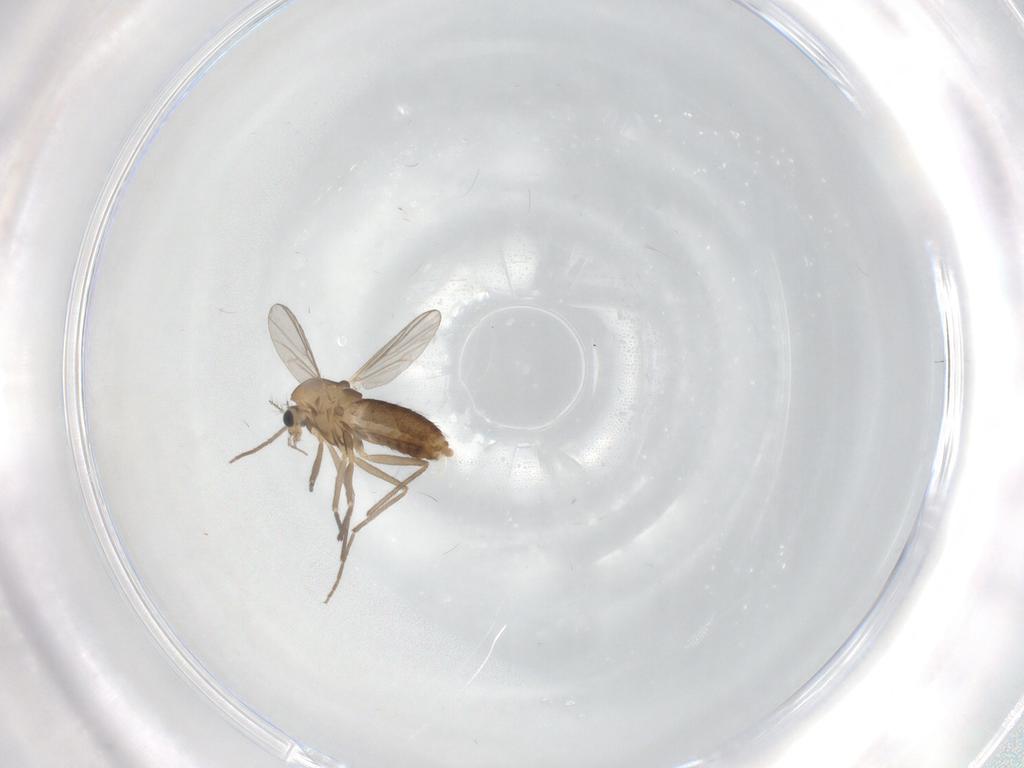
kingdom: Animalia
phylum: Arthropoda
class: Insecta
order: Diptera
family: Chironomidae
